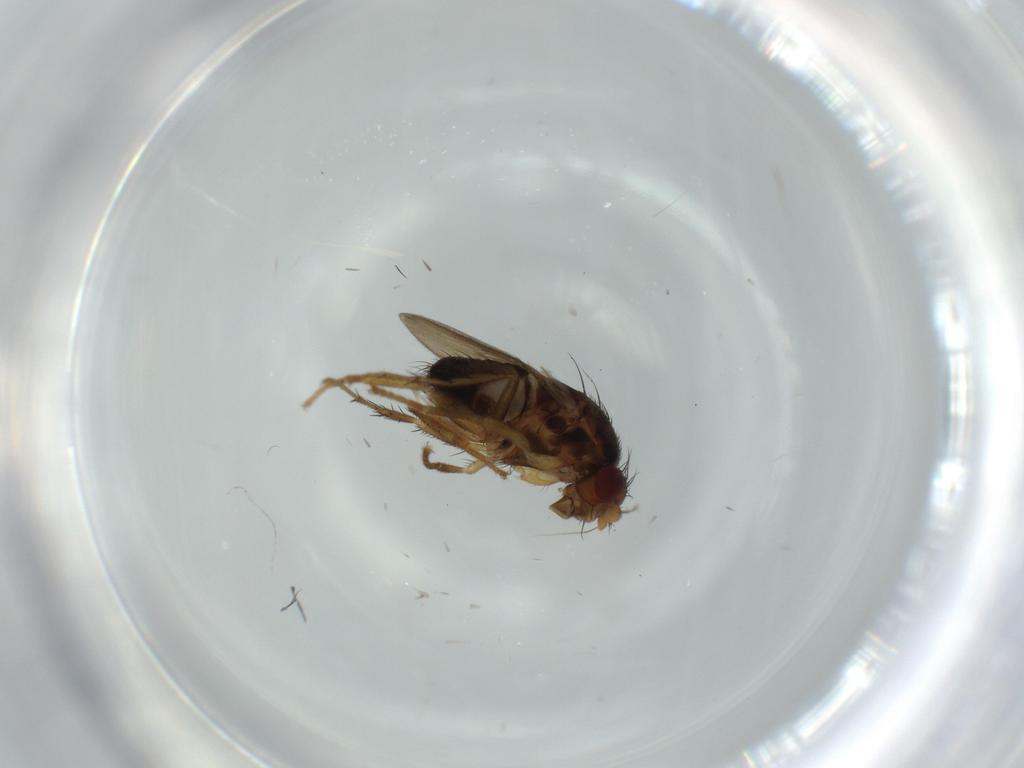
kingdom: Animalia
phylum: Arthropoda
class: Insecta
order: Diptera
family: Sphaeroceridae
